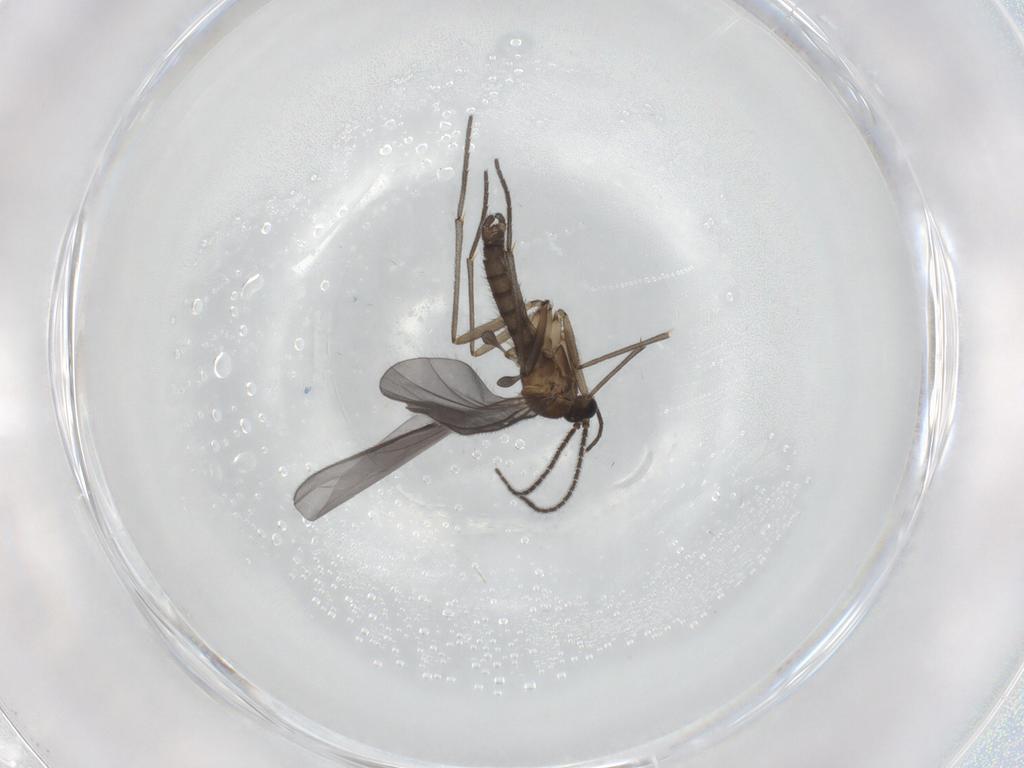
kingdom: Animalia
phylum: Arthropoda
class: Insecta
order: Diptera
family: Sciaridae
